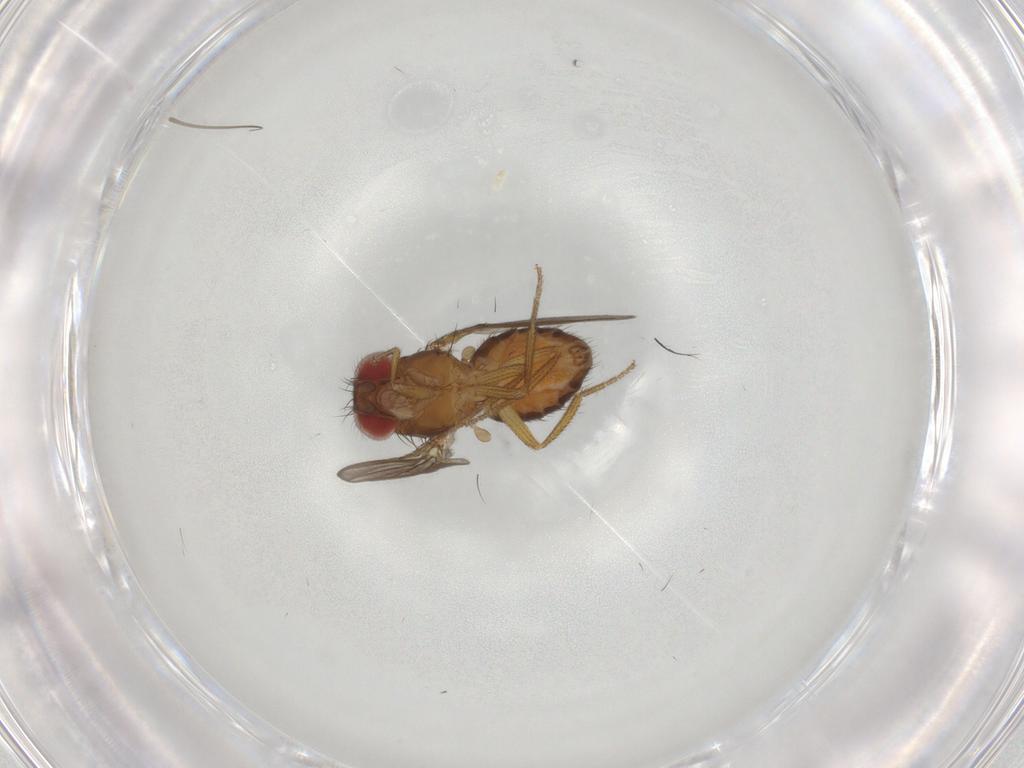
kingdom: Animalia
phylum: Arthropoda
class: Insecta
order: Diptera
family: Drosophilidae
